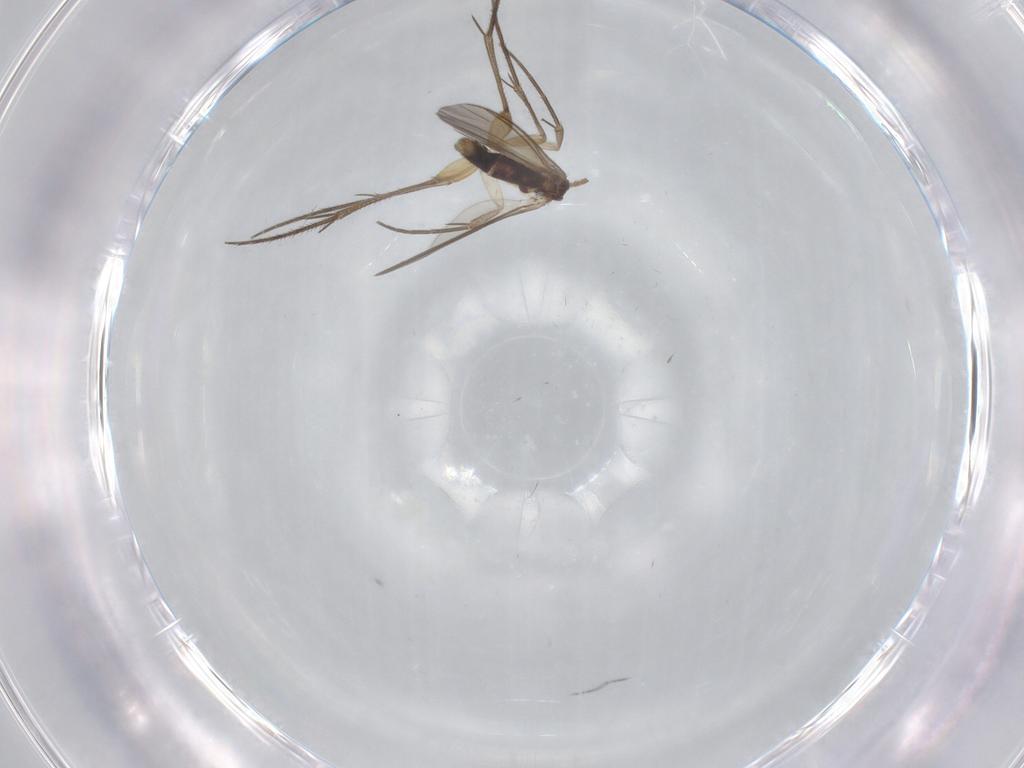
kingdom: Animalia
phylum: Arthropoda
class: Insecta
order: Diptera
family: Mycetophilidae
